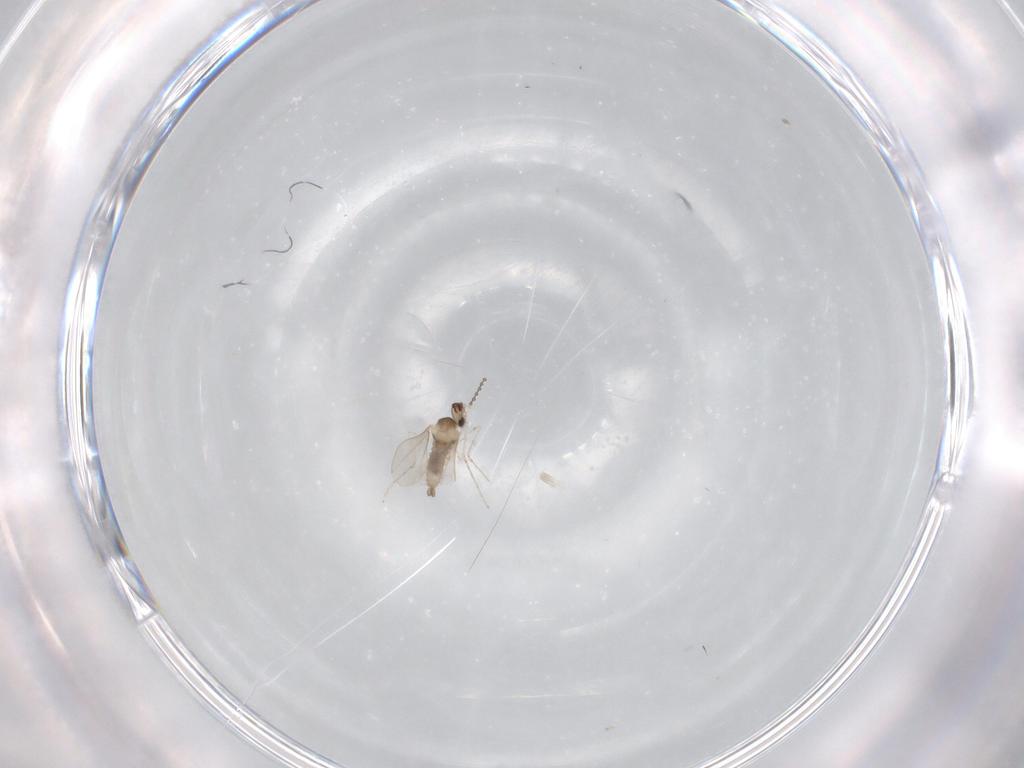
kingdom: Animalia
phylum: Arthropoda
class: Insecta
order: Diptera
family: Cecidomyiidae
